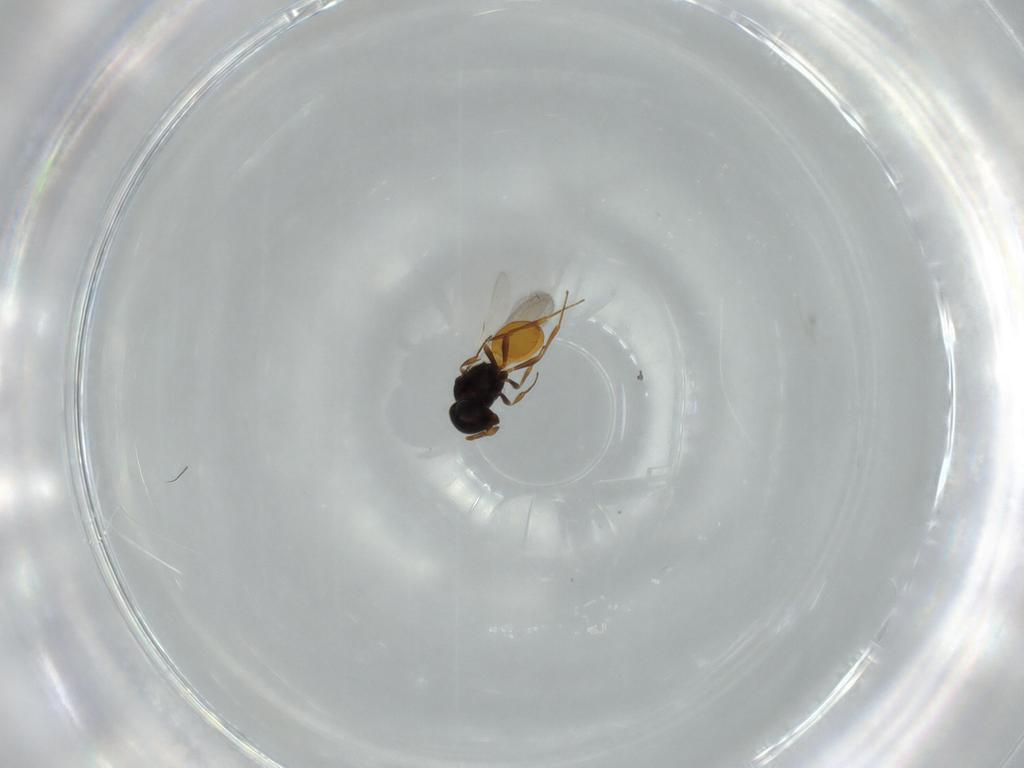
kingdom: Animalia
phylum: Arthropoda
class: Insecta
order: Hymenoptera
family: Scelionidae
